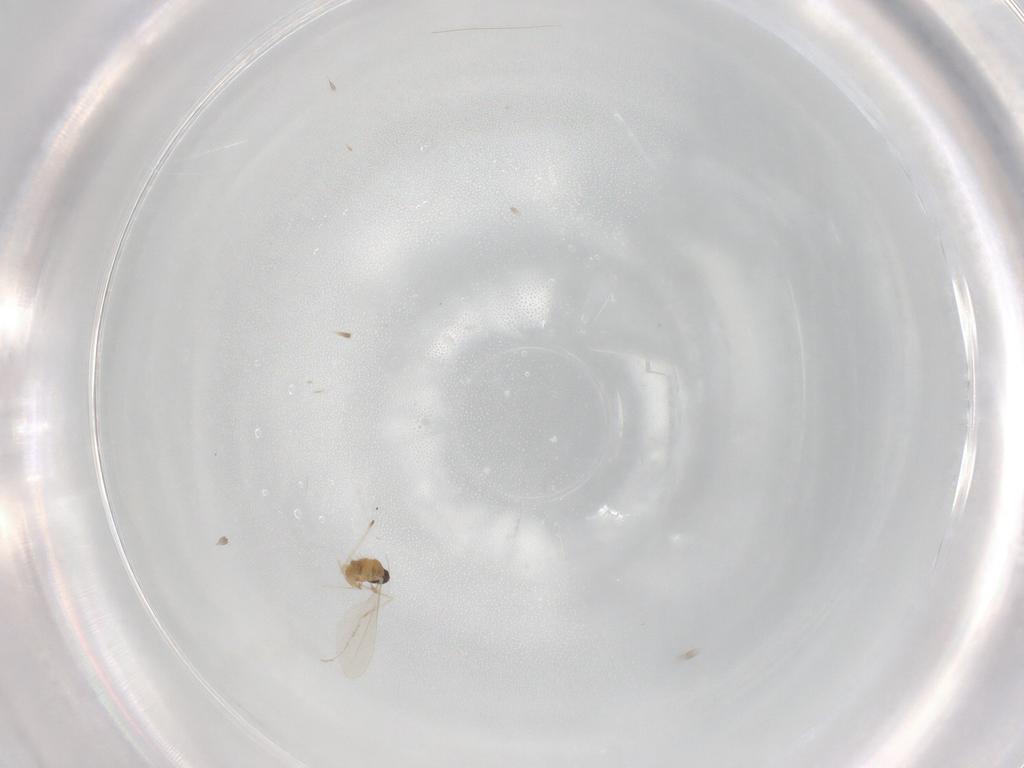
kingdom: Animalia
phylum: Arthropoda
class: Insecta
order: Diptera
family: Cecidomyiidae
